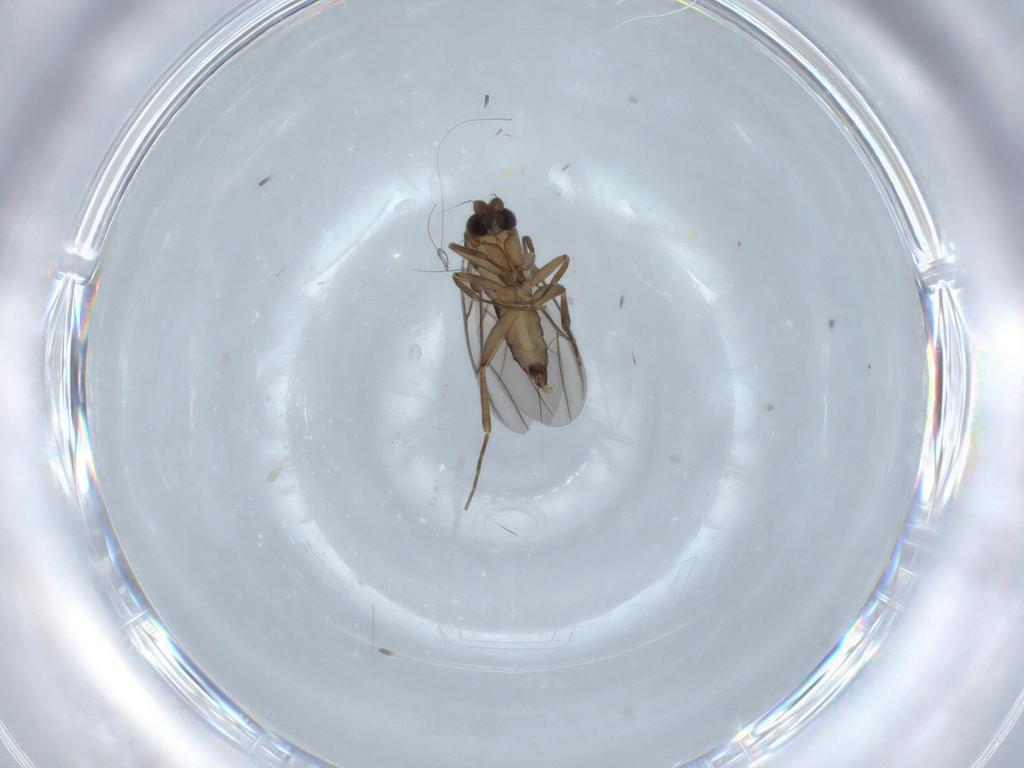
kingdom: Animalia
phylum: Arthropoda
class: Insecta
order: Diptera
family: Phoridae
